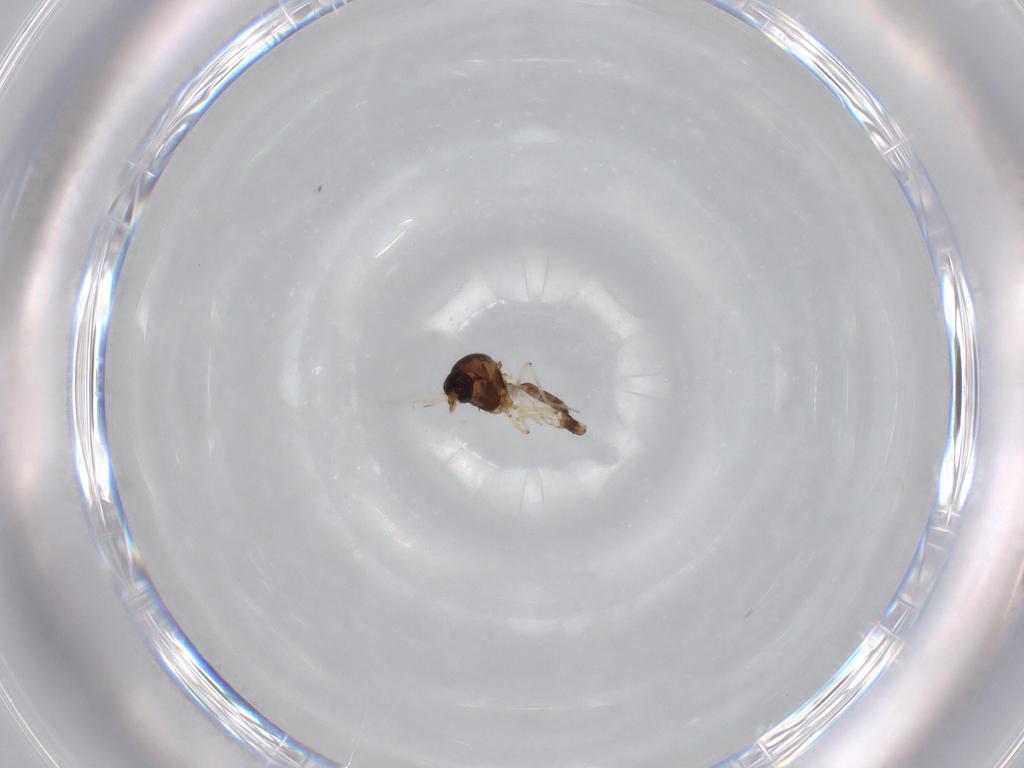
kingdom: Animalia
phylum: Arthropoda
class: Insecta
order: Diptera
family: Ceratopogonidae
